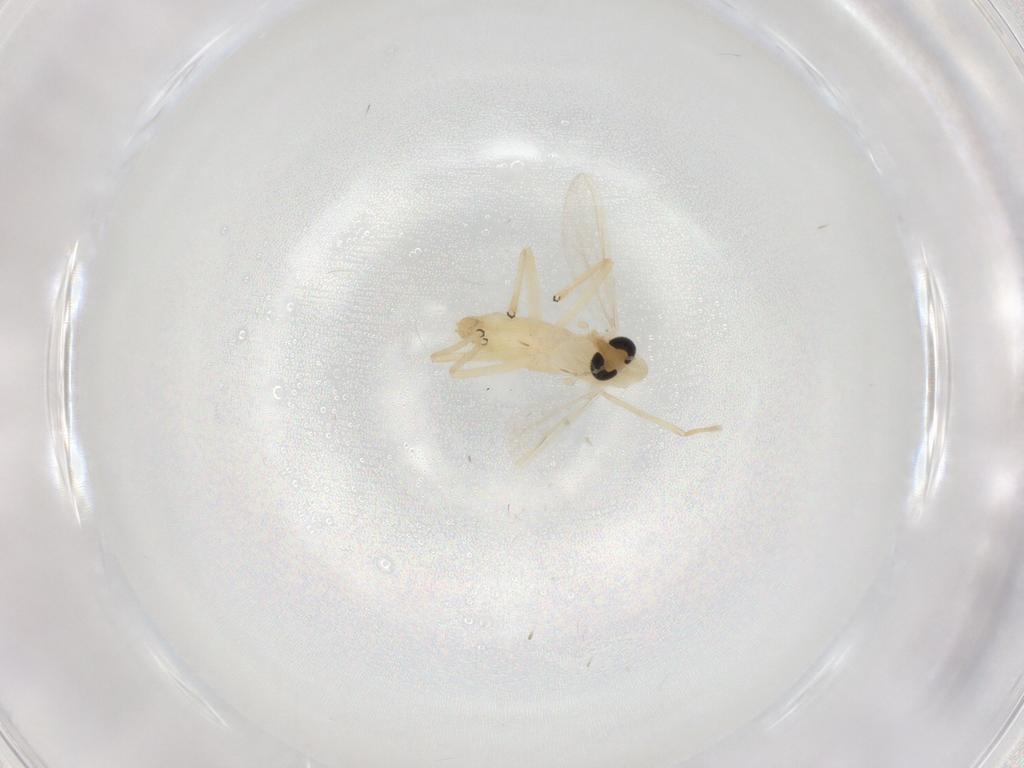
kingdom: Animalia
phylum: Arthropoda
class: Insecta
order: Diptera
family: Chironomidae
